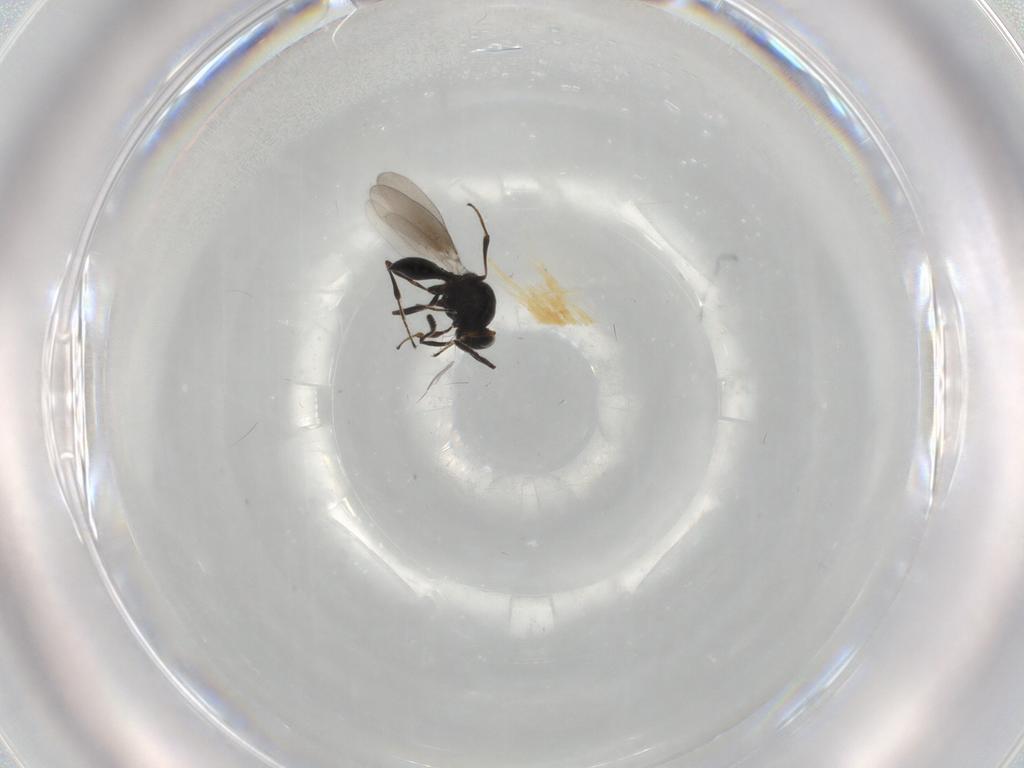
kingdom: Animalia
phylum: Arthropoda
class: Insecta
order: Hymenoptera
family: Platygastridae
